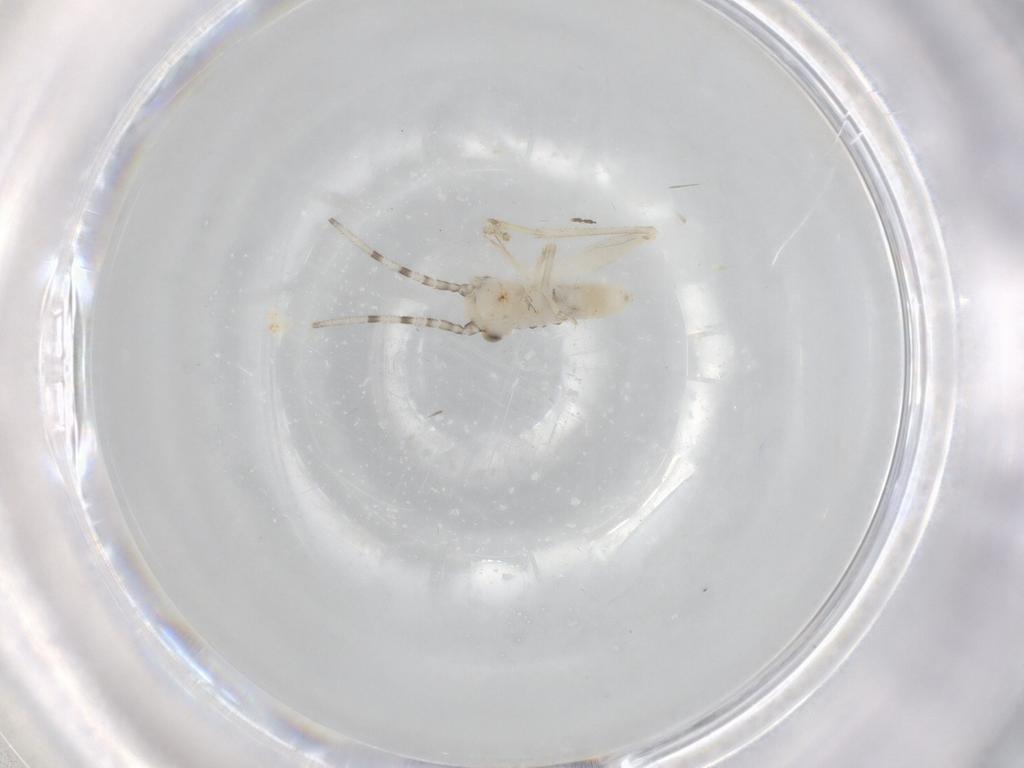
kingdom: Animalia
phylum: Arthropoda
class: Insecta
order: Orthoptera
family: Trigonidiidae
